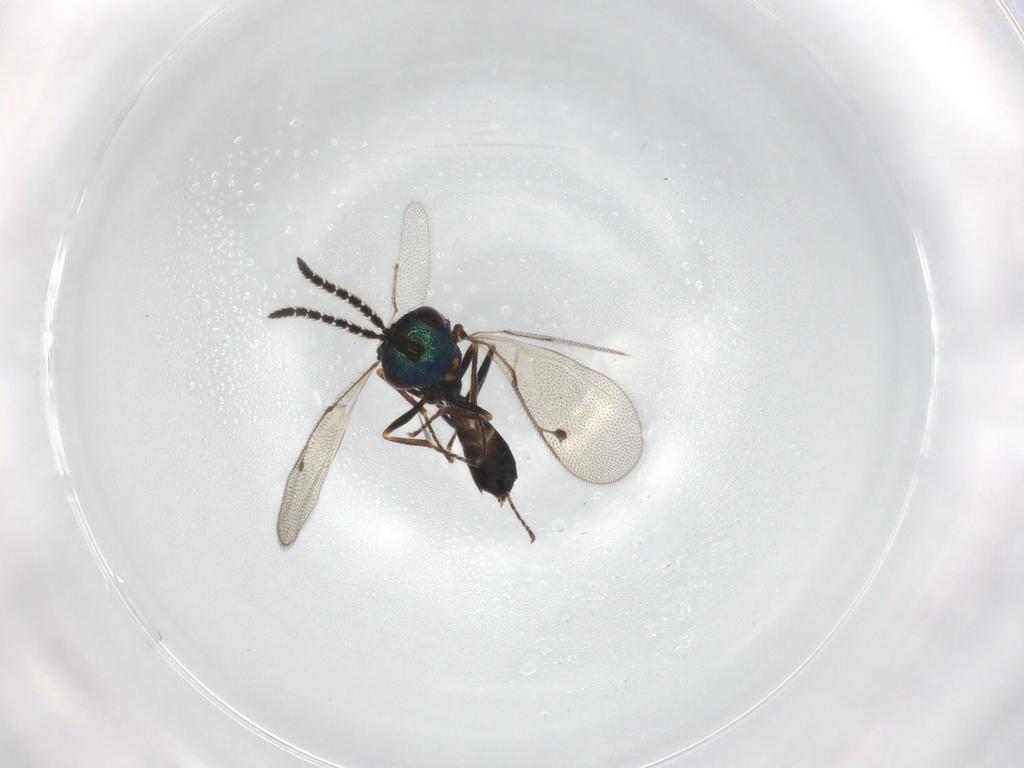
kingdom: Animalia
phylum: Arthropoda
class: Insecta
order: Hymenoptera
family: Pteromalidae
